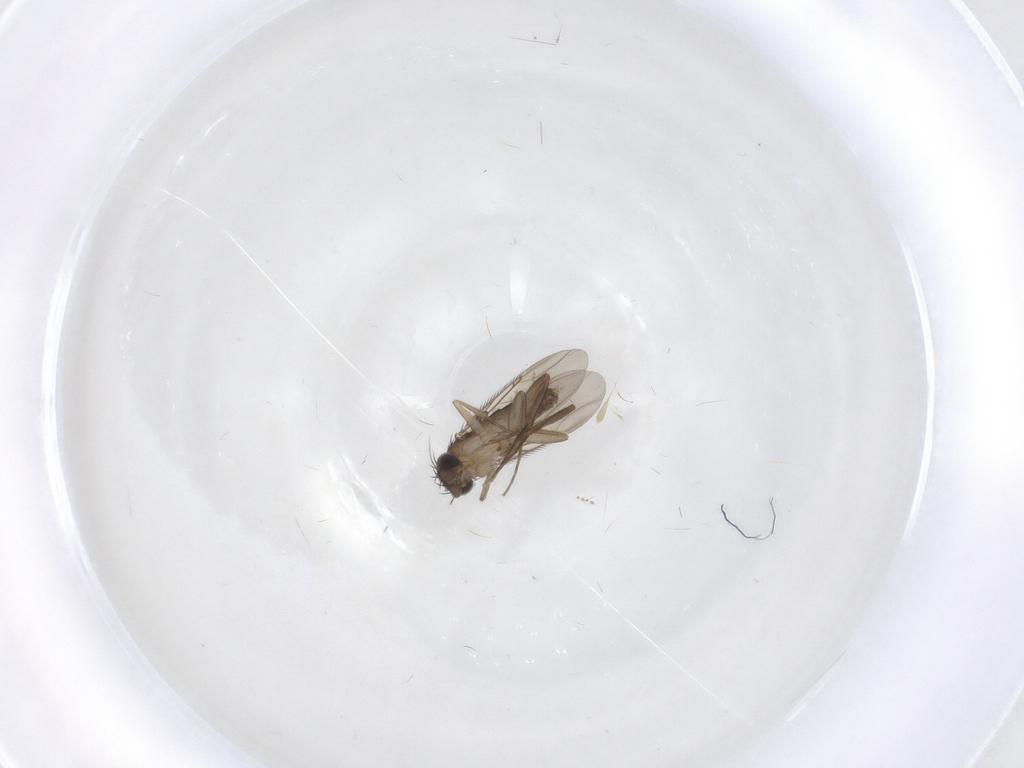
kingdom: Animalia
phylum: Arthropoda
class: Insecta
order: Diptera
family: Phoridae
